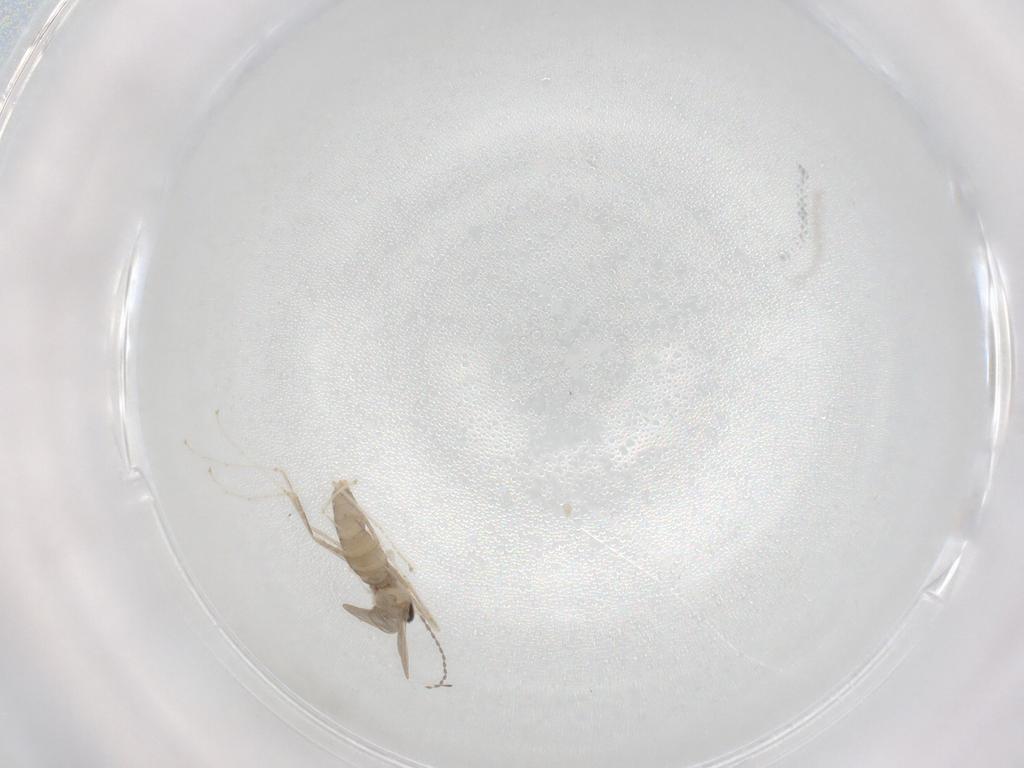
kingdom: Animalia
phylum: Arthropoda
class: Insecta
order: Diptera
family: Cecidomyiidae
